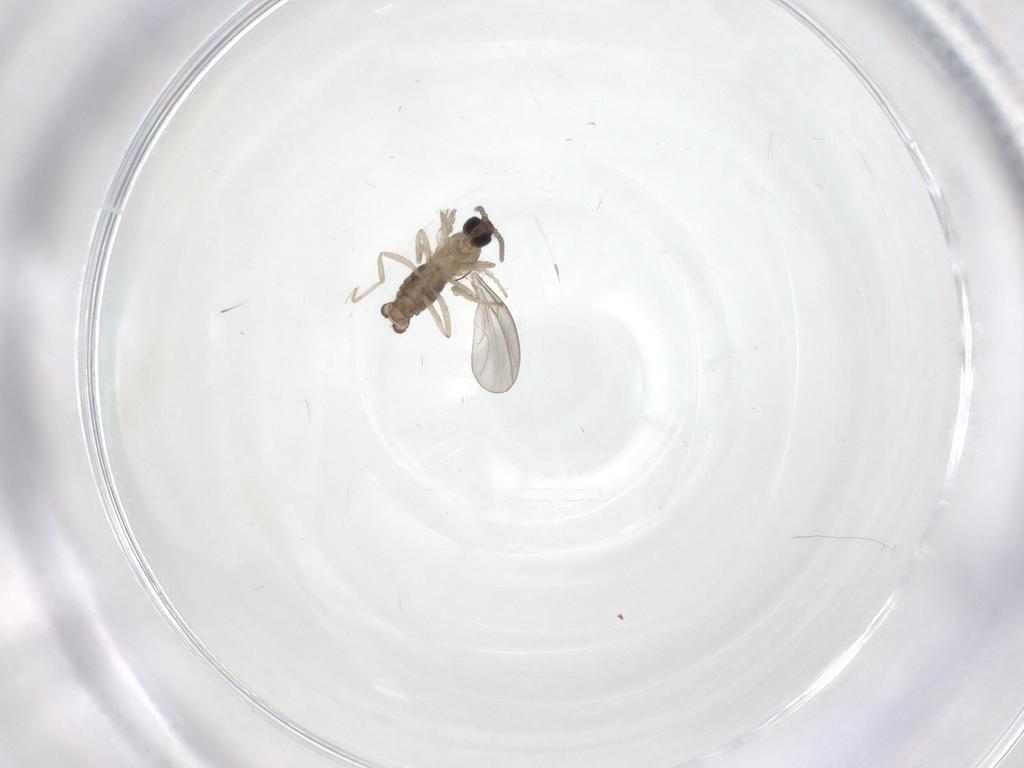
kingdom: Animalia
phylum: Arthropoda
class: Insecta
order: Diptera
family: Cecidomyiidae
